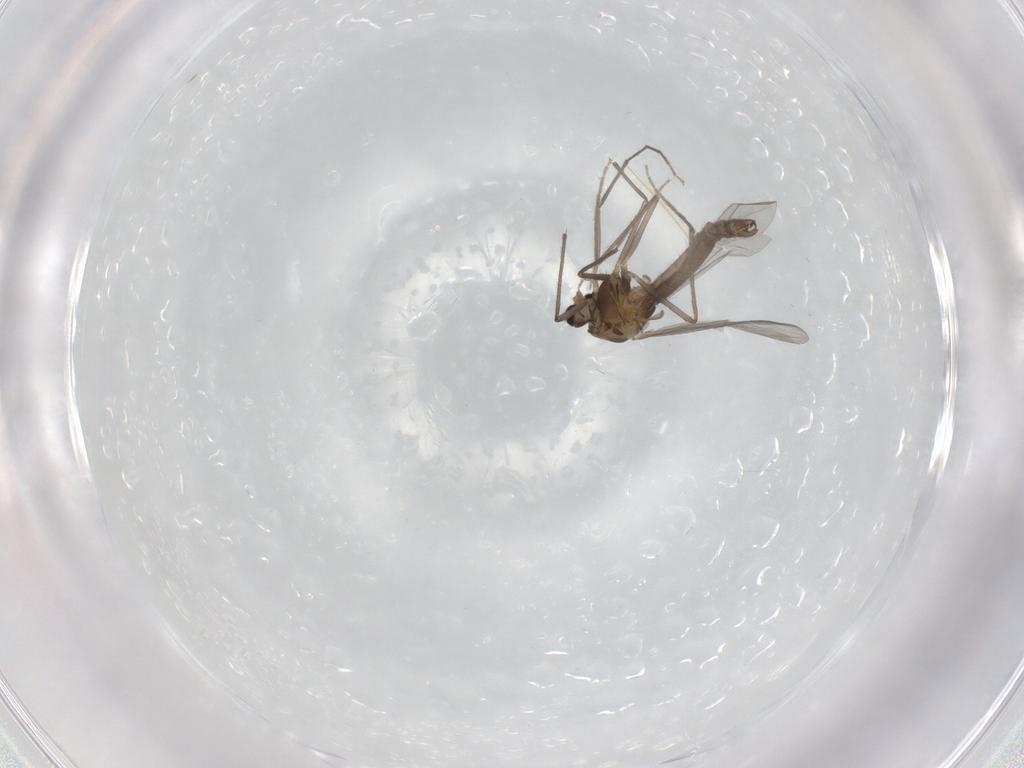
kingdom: Animalia
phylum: Arthropoda
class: Insecta
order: Diptera
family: Chironomidae
